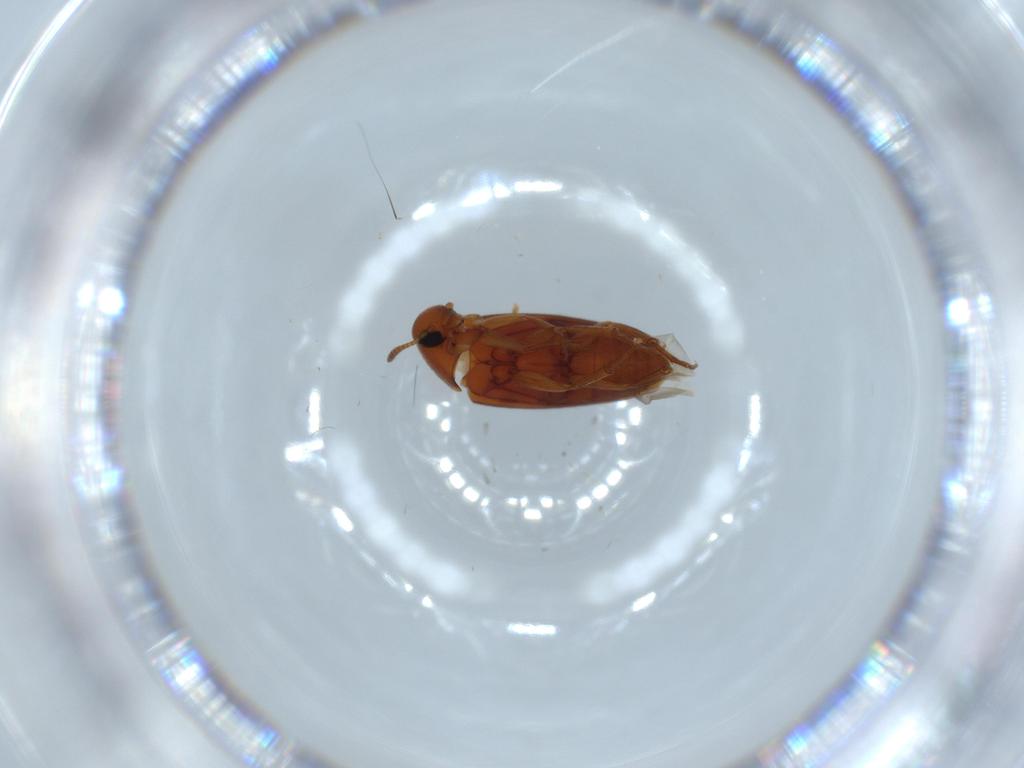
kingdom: Animalia
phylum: Arthropoda
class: Insecta
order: Coleoptera
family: Scraptiidae
